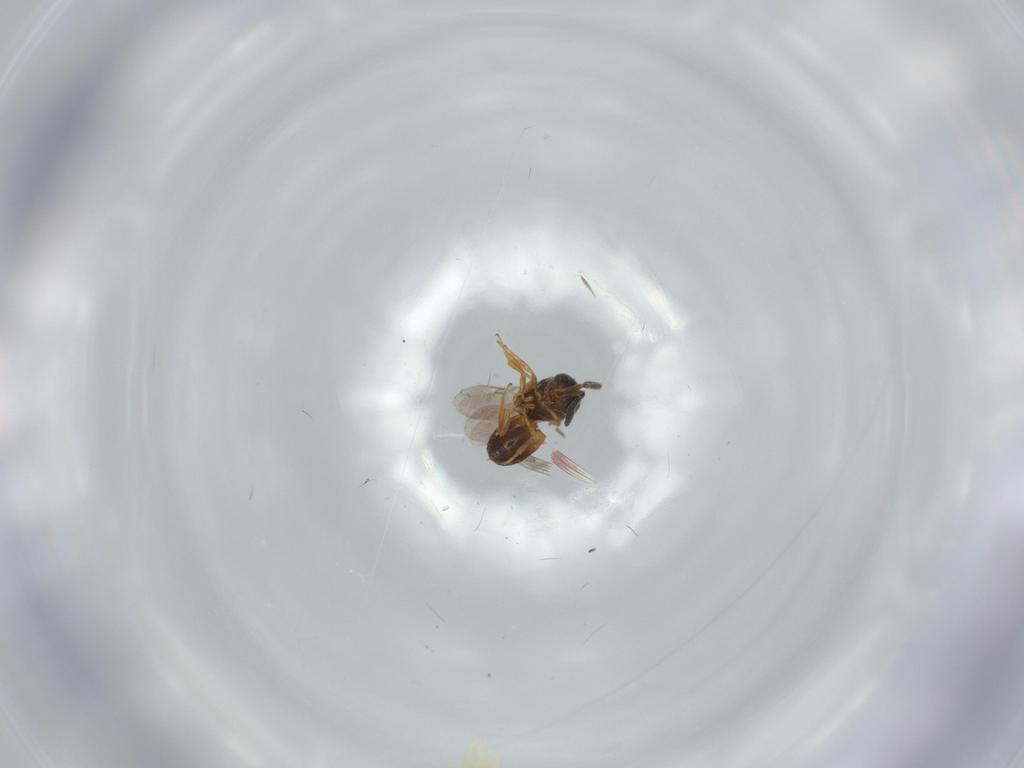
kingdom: Animalia
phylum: Arthropoda
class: Insecta
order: Hymenoptera
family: Scelionidae
